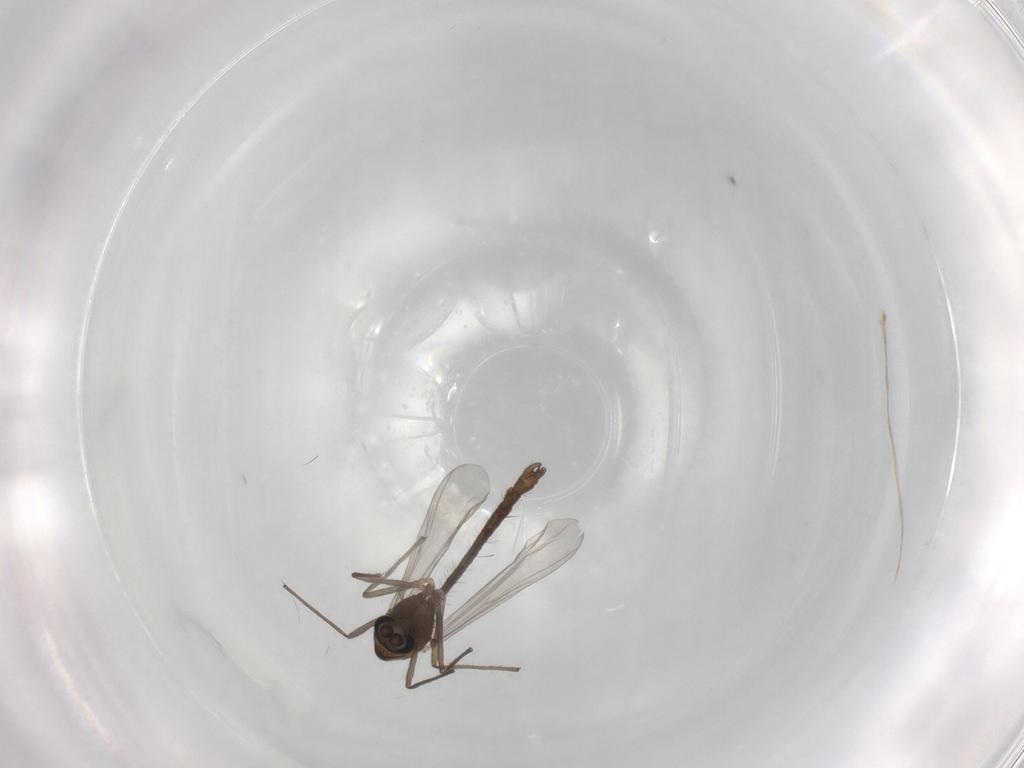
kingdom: Animalia
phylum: Arthropoda
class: Insecta
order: Diptera
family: Chironomidae
